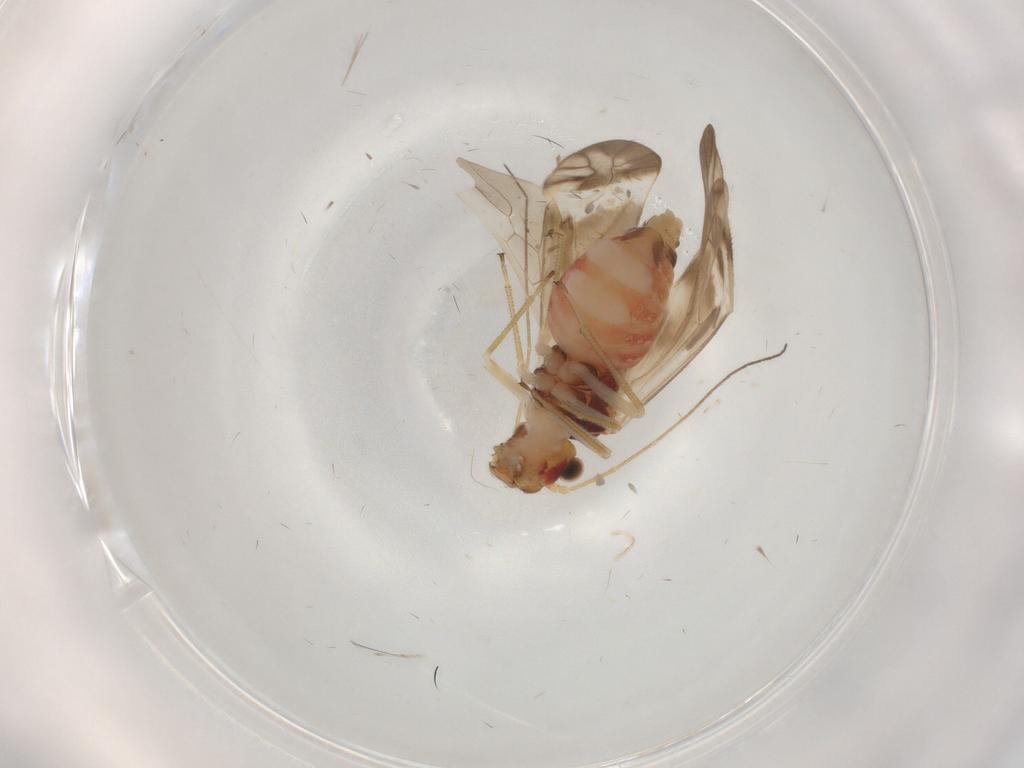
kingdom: Animalia
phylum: Arthropoda
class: Insecta
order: Psocodea
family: Caeciliusidae
